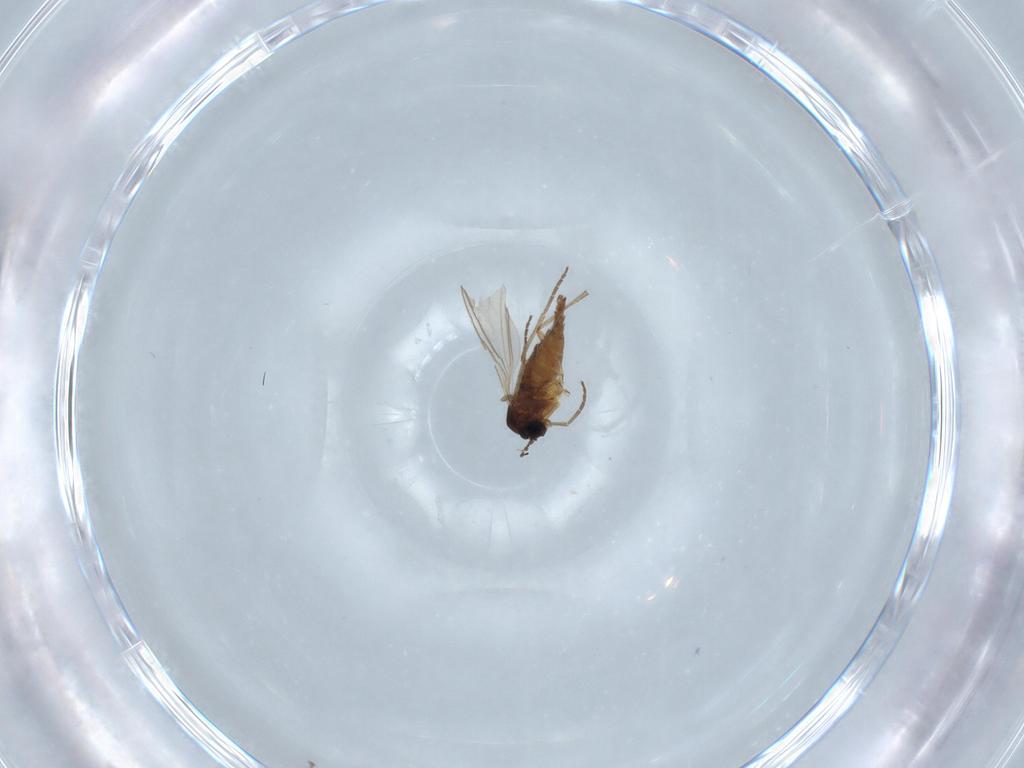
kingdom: Animalia
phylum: Arthropoda
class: Insecta
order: Diptera
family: Ceratopogonidae
